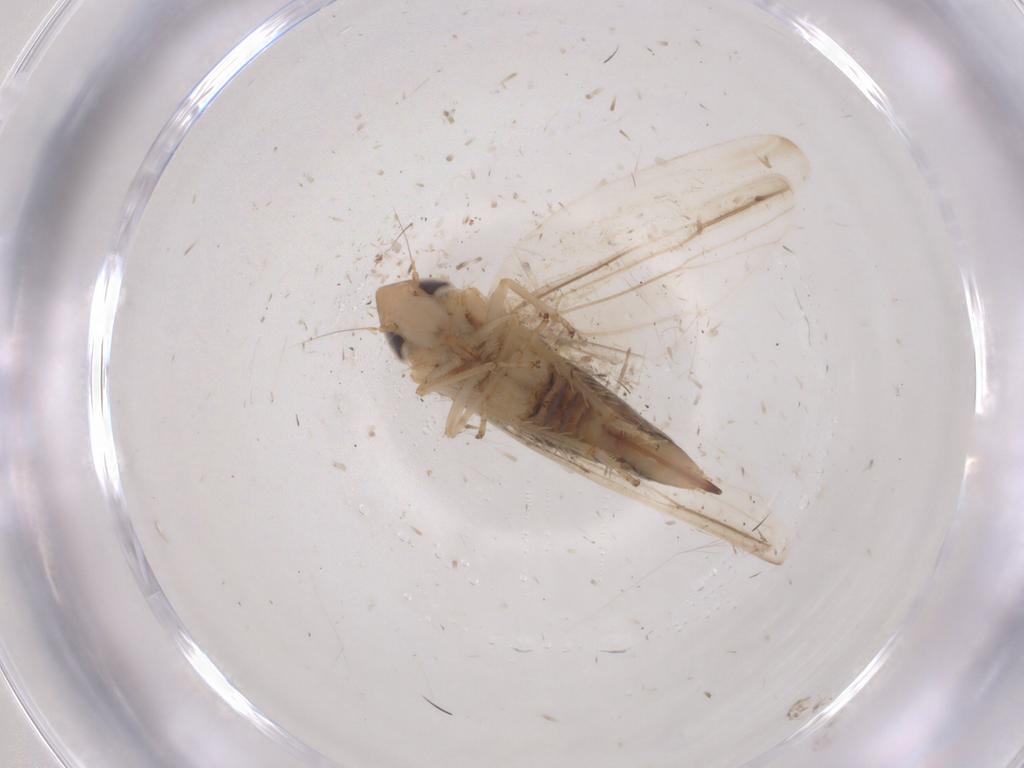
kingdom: Animalia
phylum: Arthropoda
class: Insecta
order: Hemiptera
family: Cicadellidae
